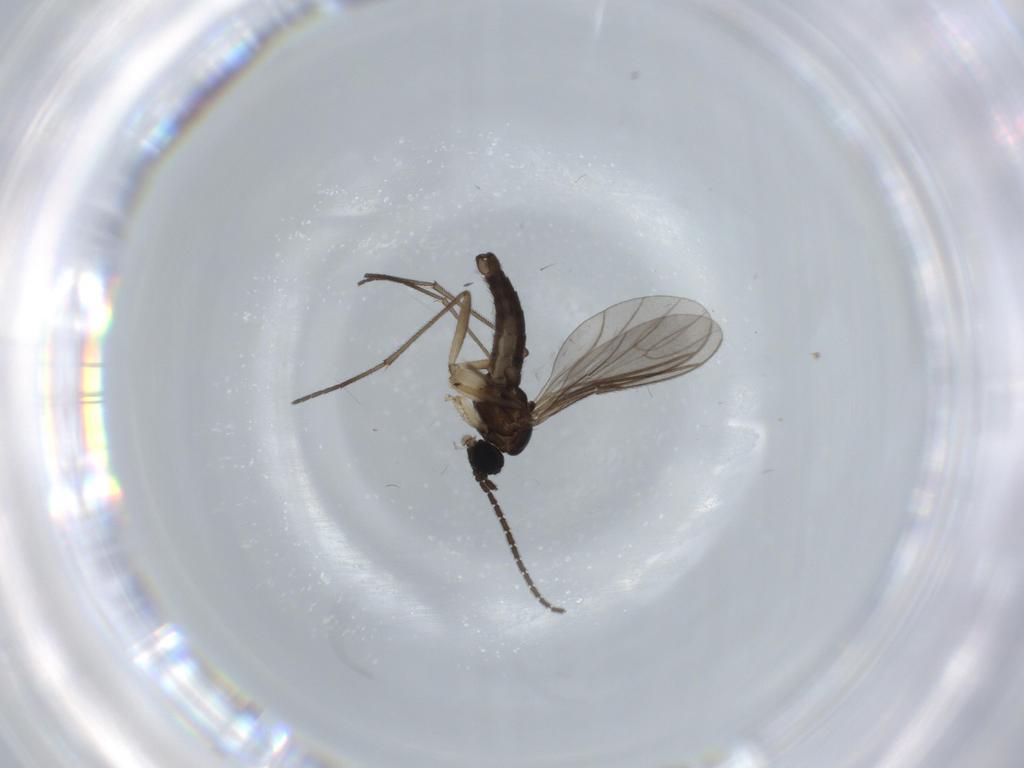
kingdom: Animalia
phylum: Arthropoda
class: Insecta
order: Diptera
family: Sciaridae
